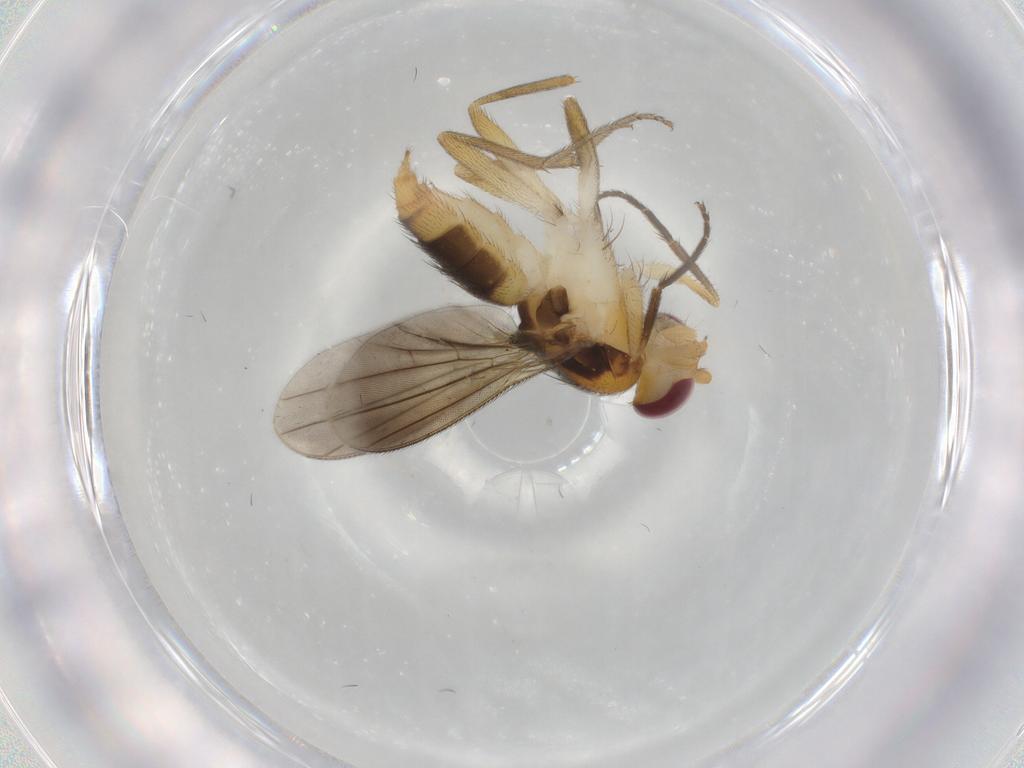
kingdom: Animalia
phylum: Arthropoda
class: Insecta
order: Diptera
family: Clusiidae
